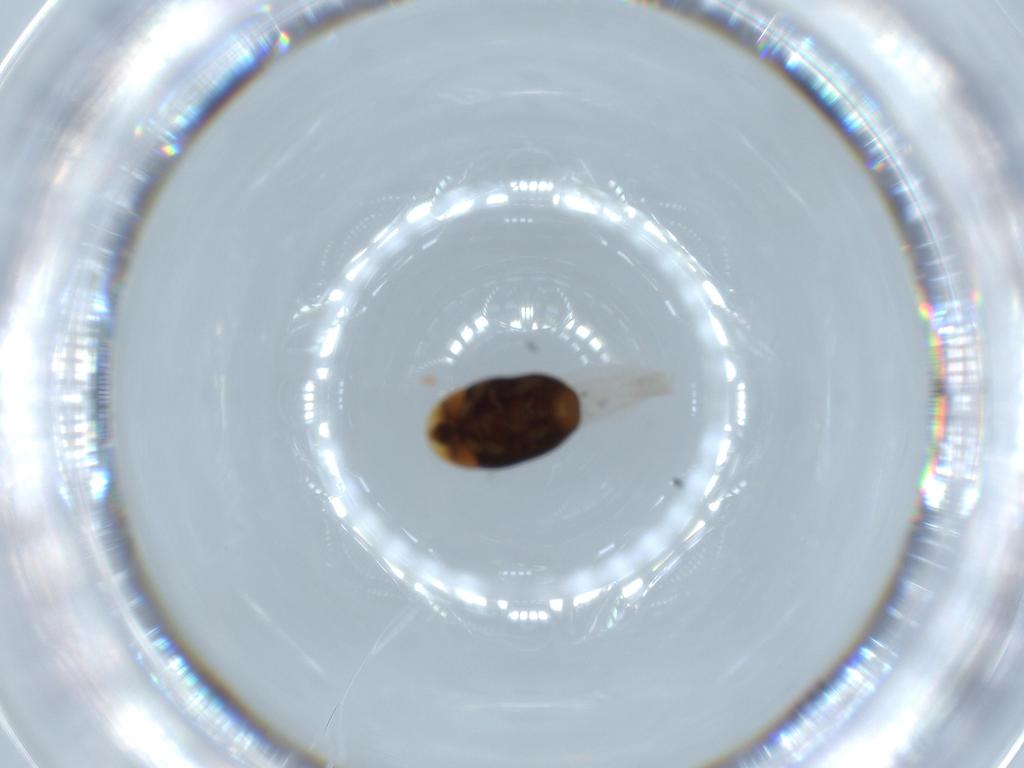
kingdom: Animalia
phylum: Arthropoda
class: Insecta
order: Coleoptera
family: Corylophidae
